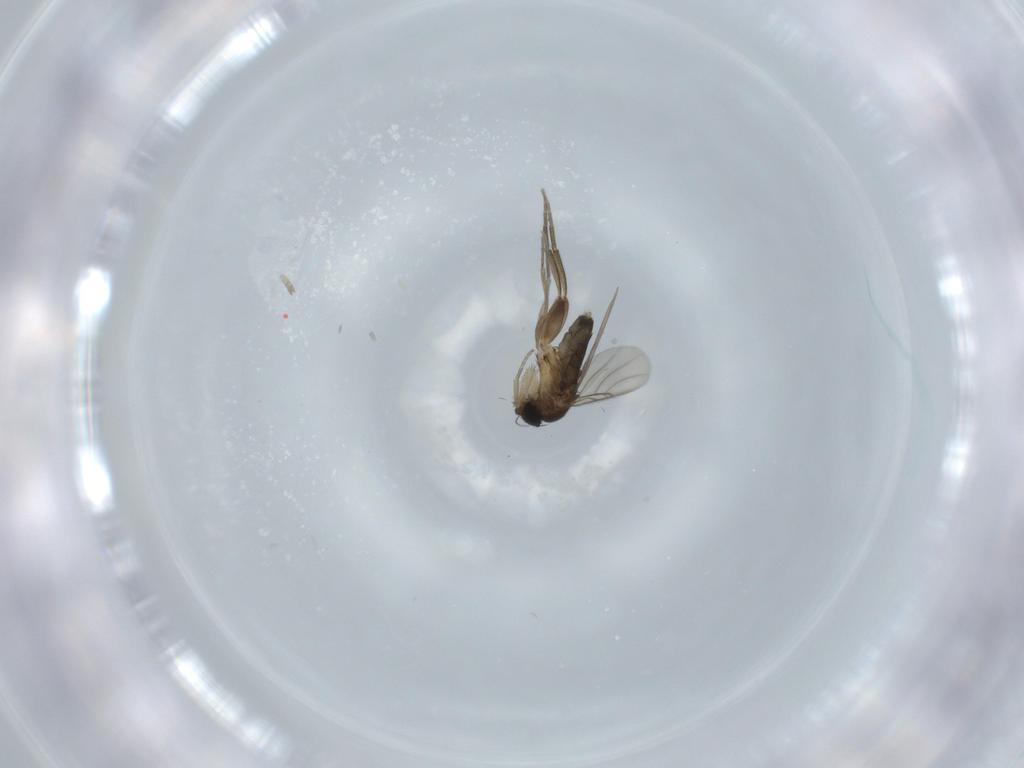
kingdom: Animalia
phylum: Arthropoda
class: Insecta
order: Diptera
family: Phoridae
